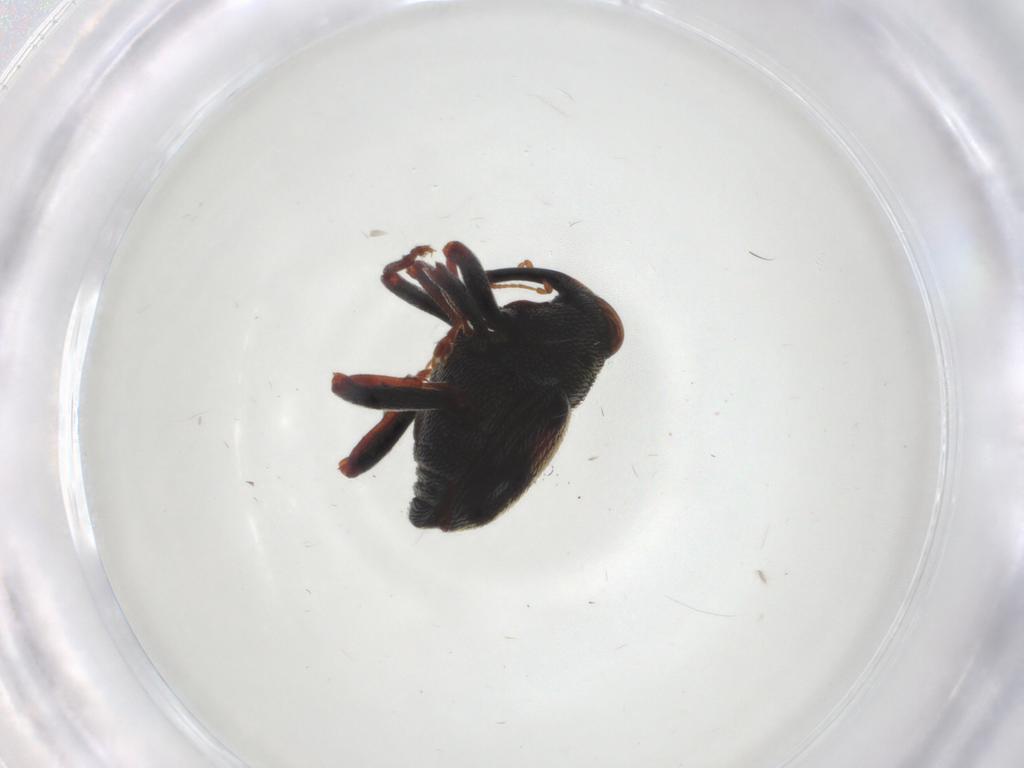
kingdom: Animalia
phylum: Arthropoda
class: Insecta
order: Coleoptera
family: Curculionidae
